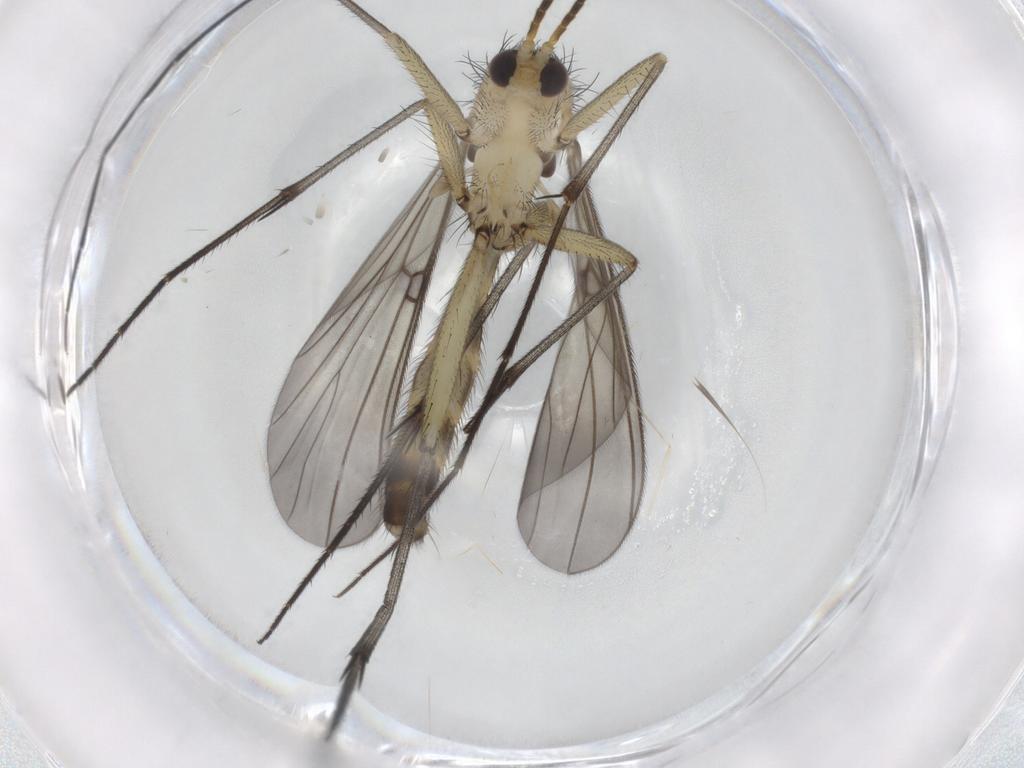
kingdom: Animalia
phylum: Arthropoda
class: Insecta
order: Diptera
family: Mycetophilidae
